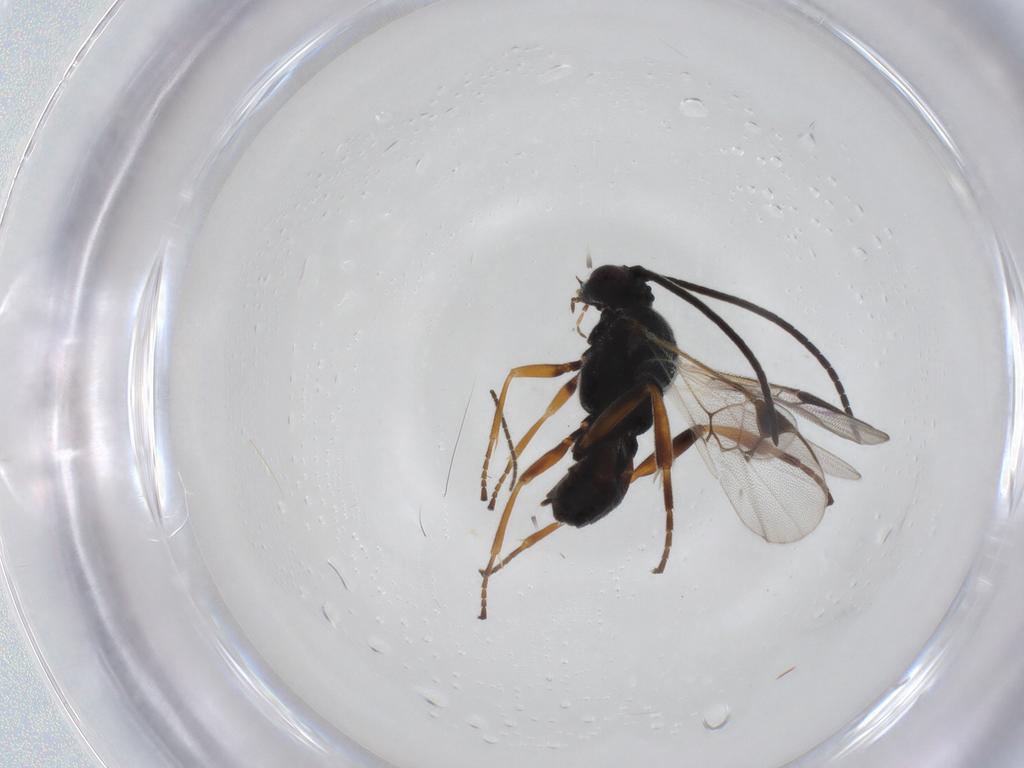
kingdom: Animalia
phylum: Arthropoda
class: Insecta
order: Hymenoptera
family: Braconidae
